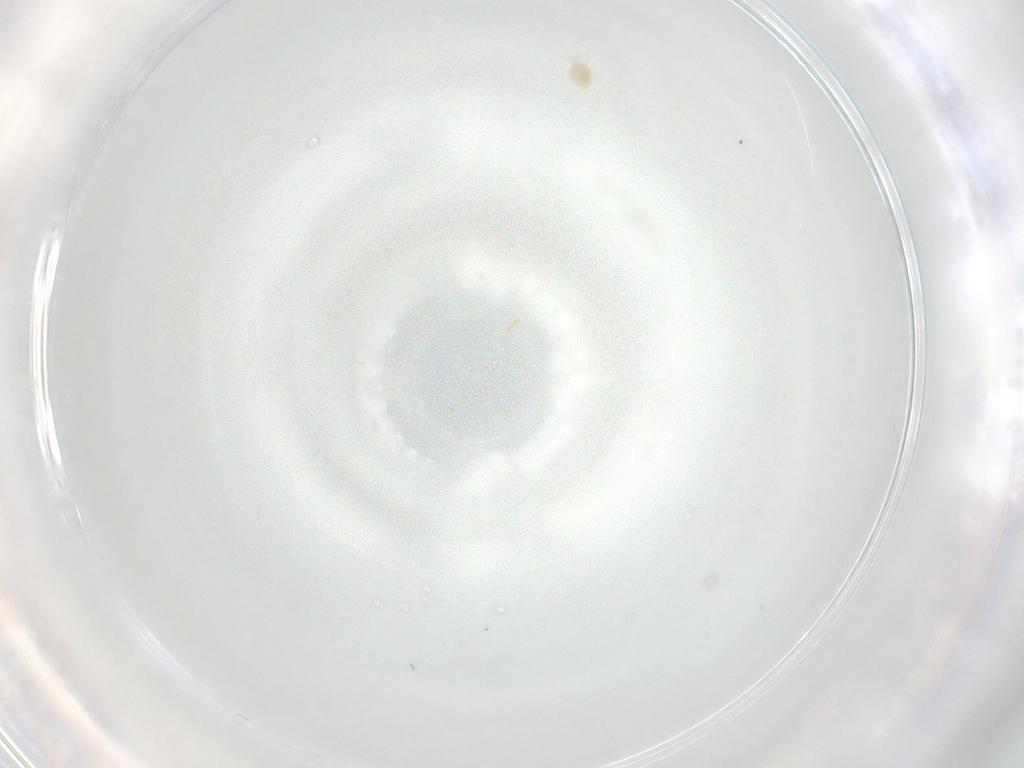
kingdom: Animalia
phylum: Arthropoda
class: Arachnida
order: Trombidiformes
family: Eupodidae
